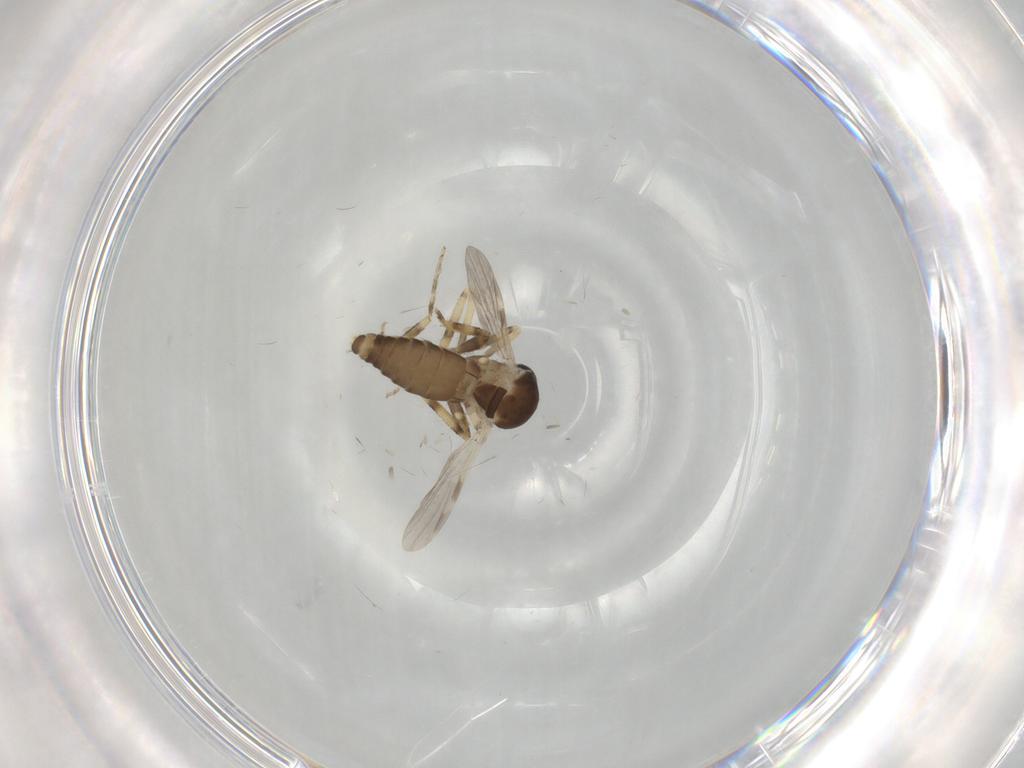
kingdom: Animalia
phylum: Arthropoda
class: Insecta
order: Diptera
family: Ceratopogonidae
